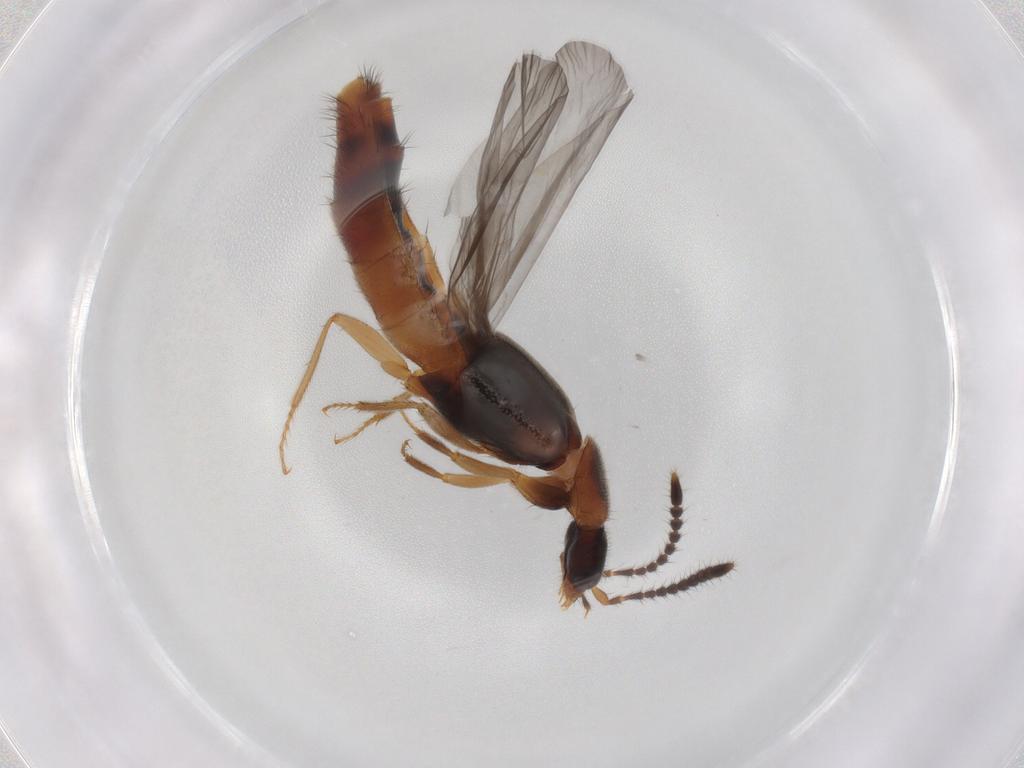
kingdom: Animalia
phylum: Arthropoda
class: Insecta
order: Coleoptera
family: Staphylinidae
